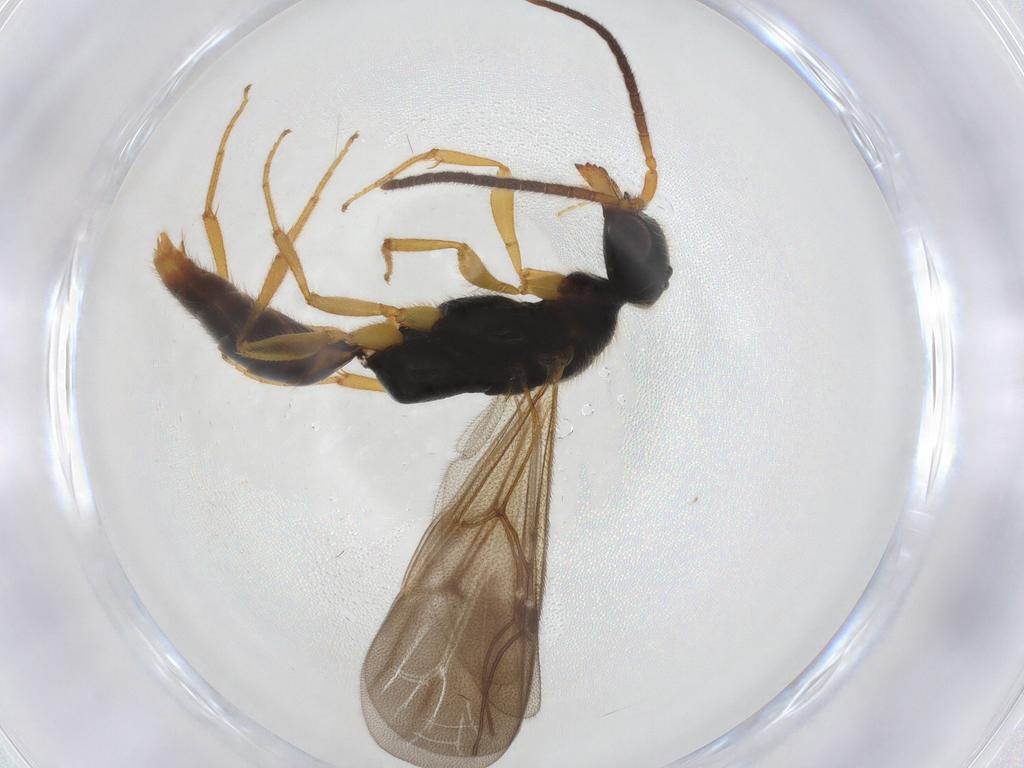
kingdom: Animalia
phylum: Arthropoda
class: Insecta
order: Hymenoptera
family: Bethylidae
